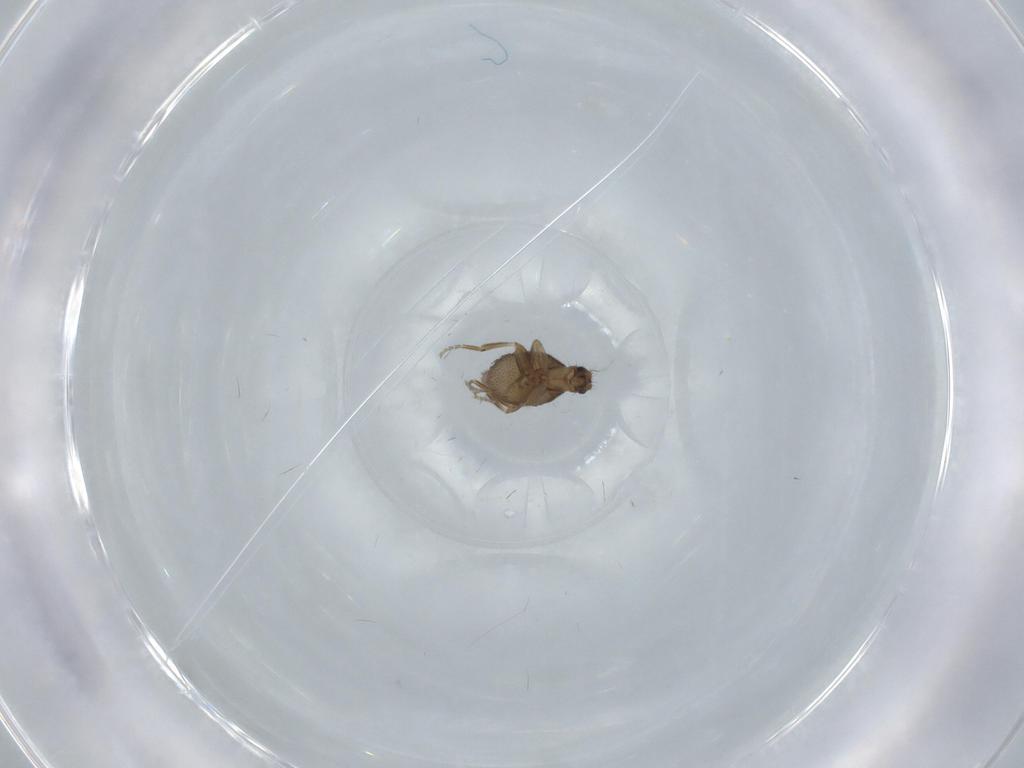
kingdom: Animalia
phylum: Arthropoda
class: Insecta
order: Diptera
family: Phoridae
